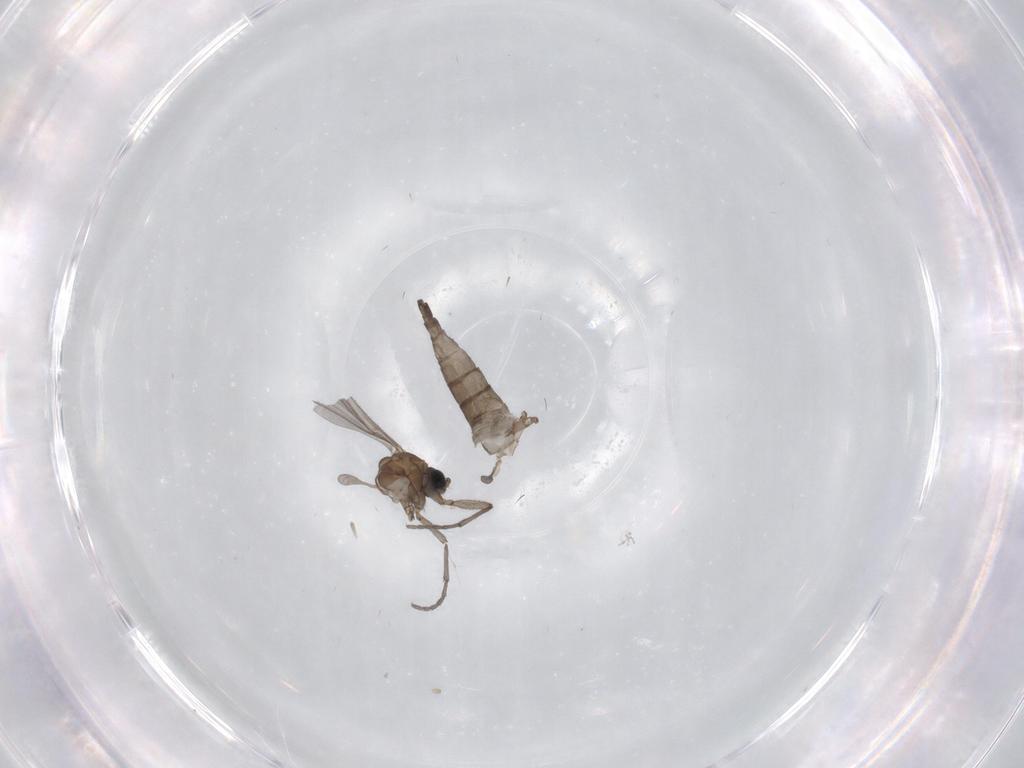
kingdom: Animalia
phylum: Arthropoda
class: Insecta
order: Diptera
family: Sciaridae
